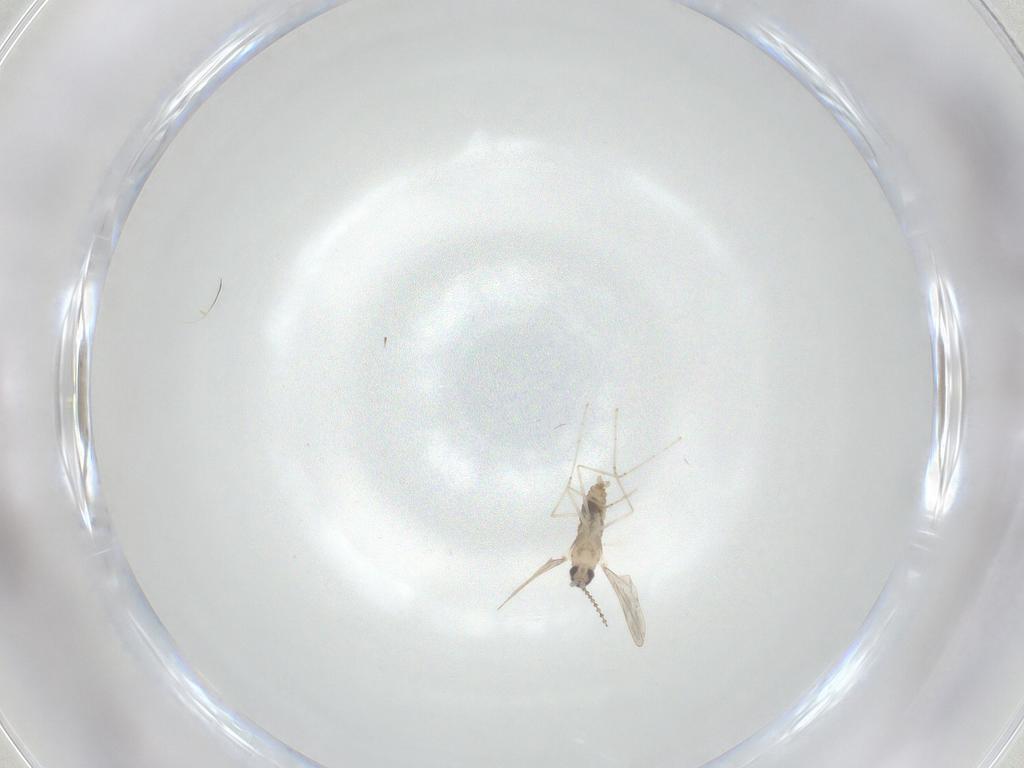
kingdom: Animalia
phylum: Arthropoda
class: Insecta
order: Diptera
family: Cecidomyiidae
